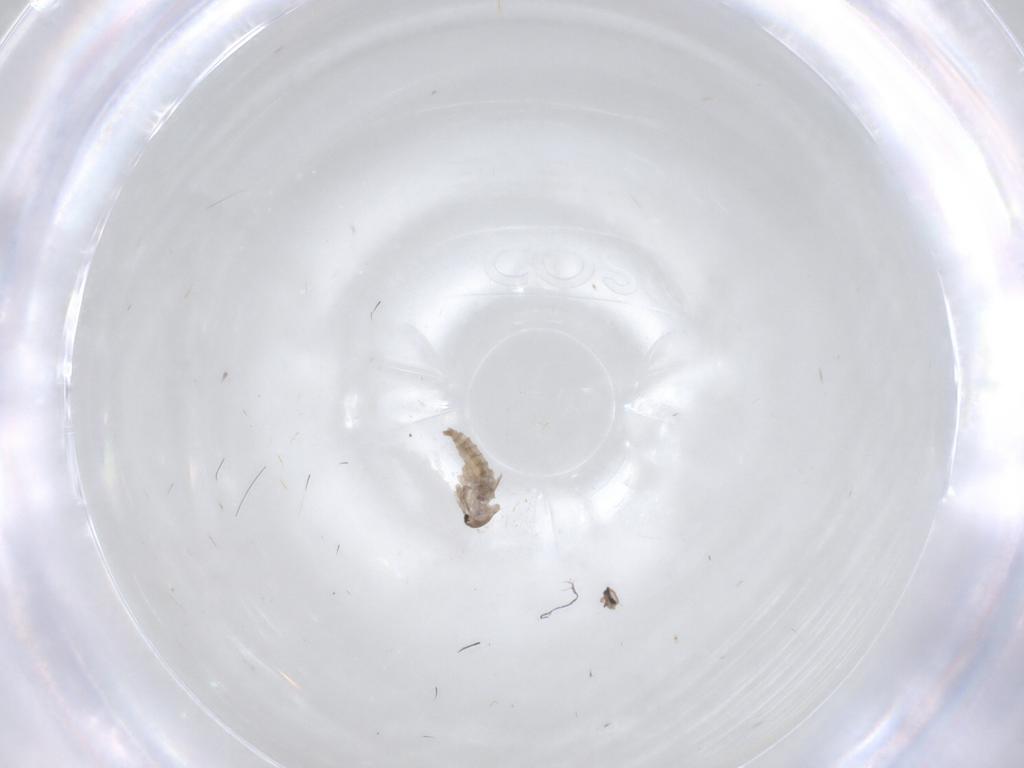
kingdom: Animalia
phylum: Arthropoda
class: Insecta
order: Diptera
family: Cecidomyiidae
